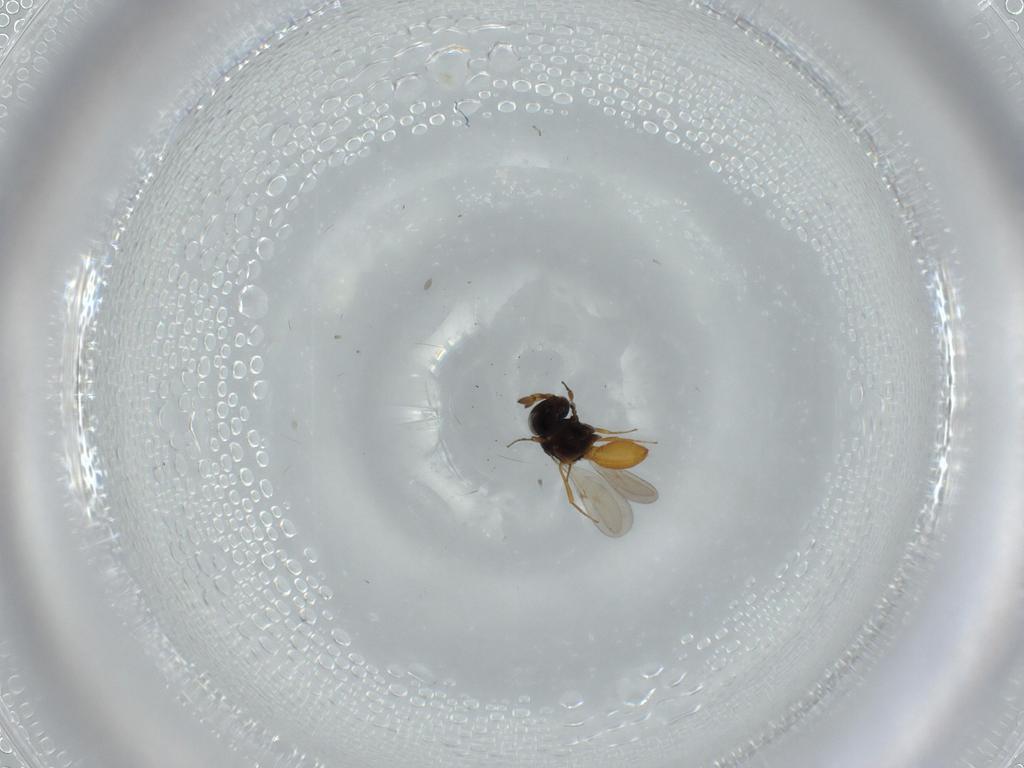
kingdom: Animalia
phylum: Arthropoda
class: Insecta
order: Hymenoptera
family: Scelionidae
